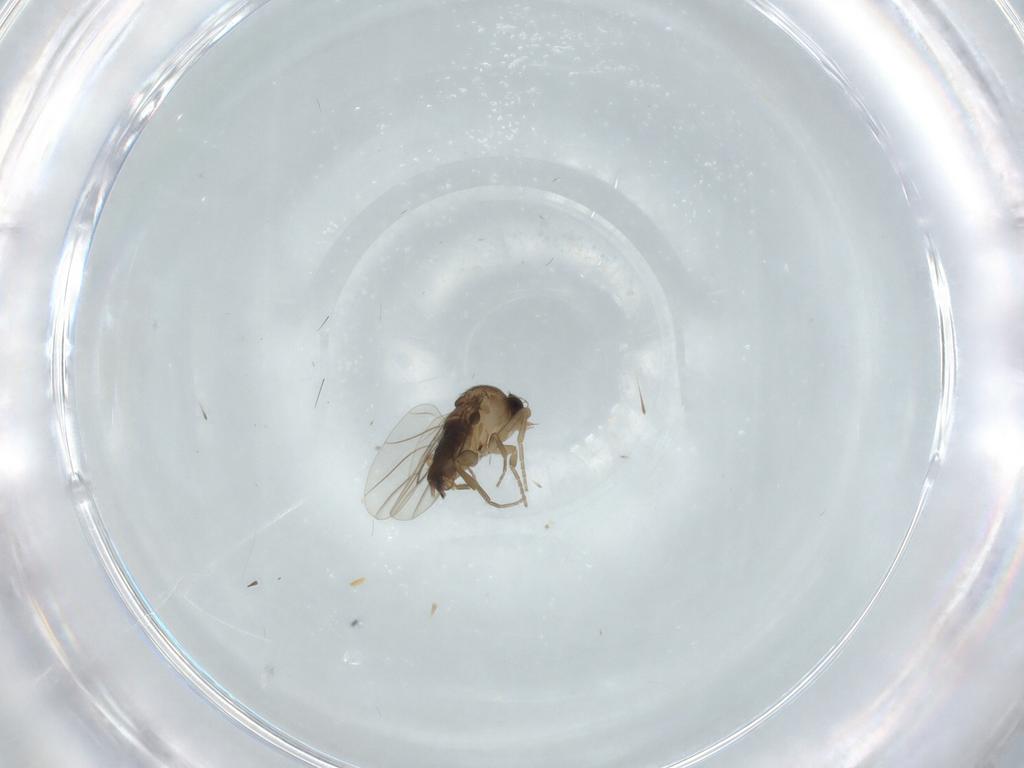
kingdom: Animalia
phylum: Arthropoda
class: Insecta
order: Diptera
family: Phoridae
